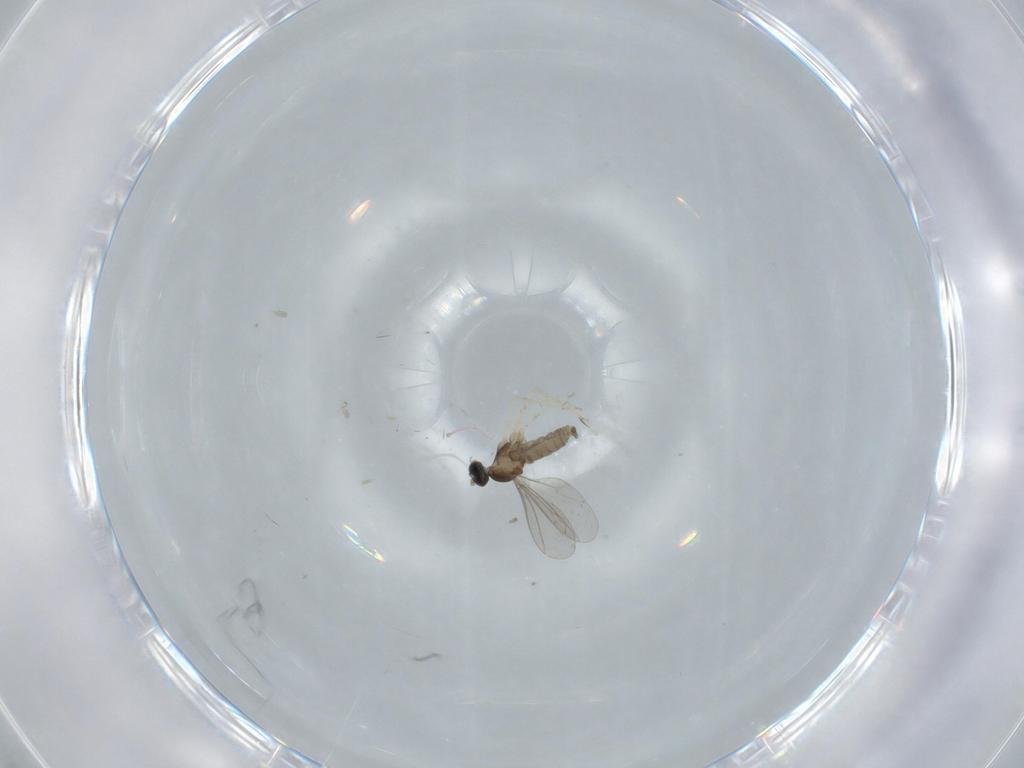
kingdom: Animalia
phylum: Arthropoda
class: Insecta
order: Diptera
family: Cecidomyiidae
